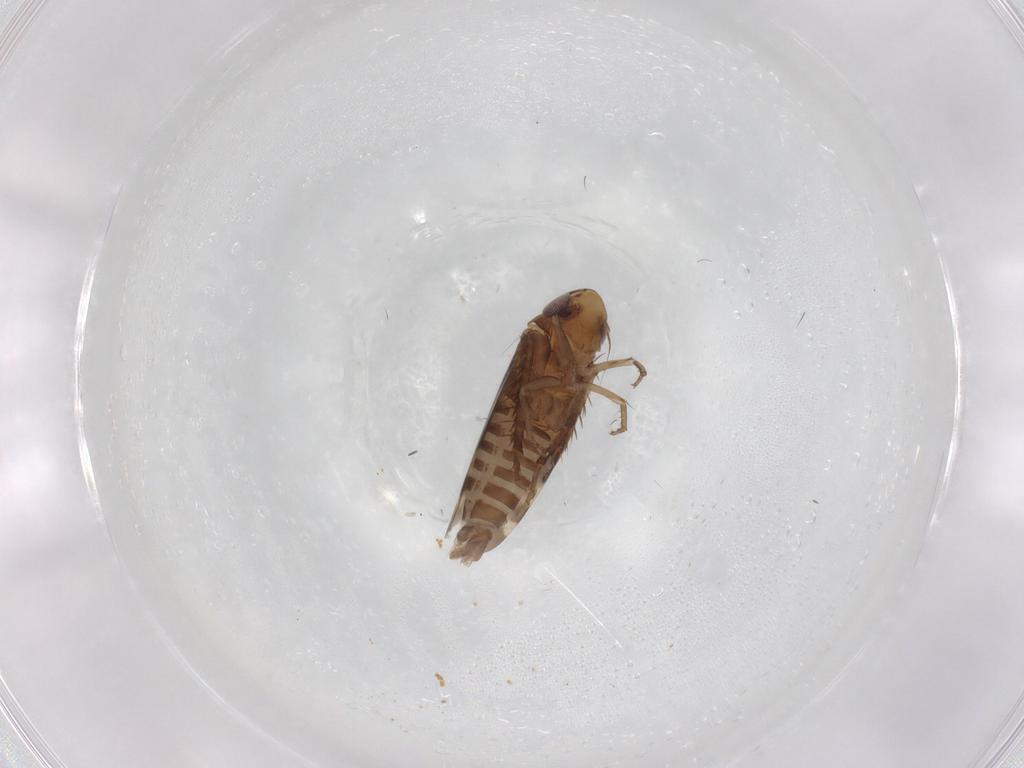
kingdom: Animalia
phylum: Arthropoda
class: Insecta
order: Hemiptera
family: Cicadellidae
